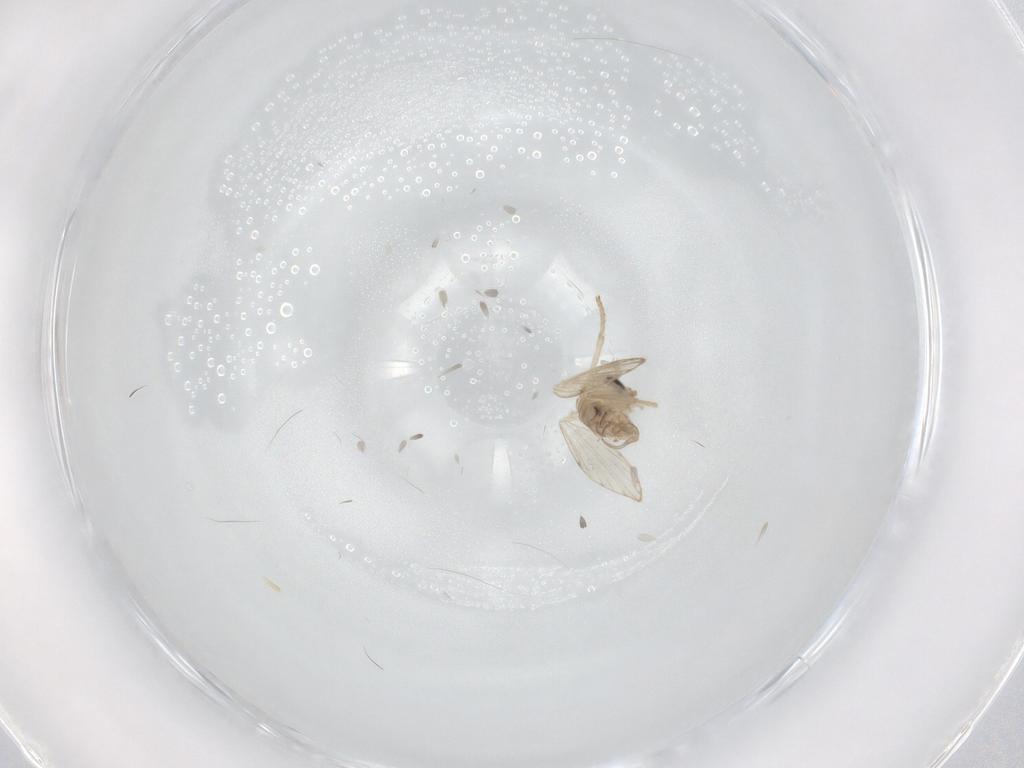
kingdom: Animalia
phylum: Arthropoda
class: Insecta
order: Diptera
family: Psychodidae
